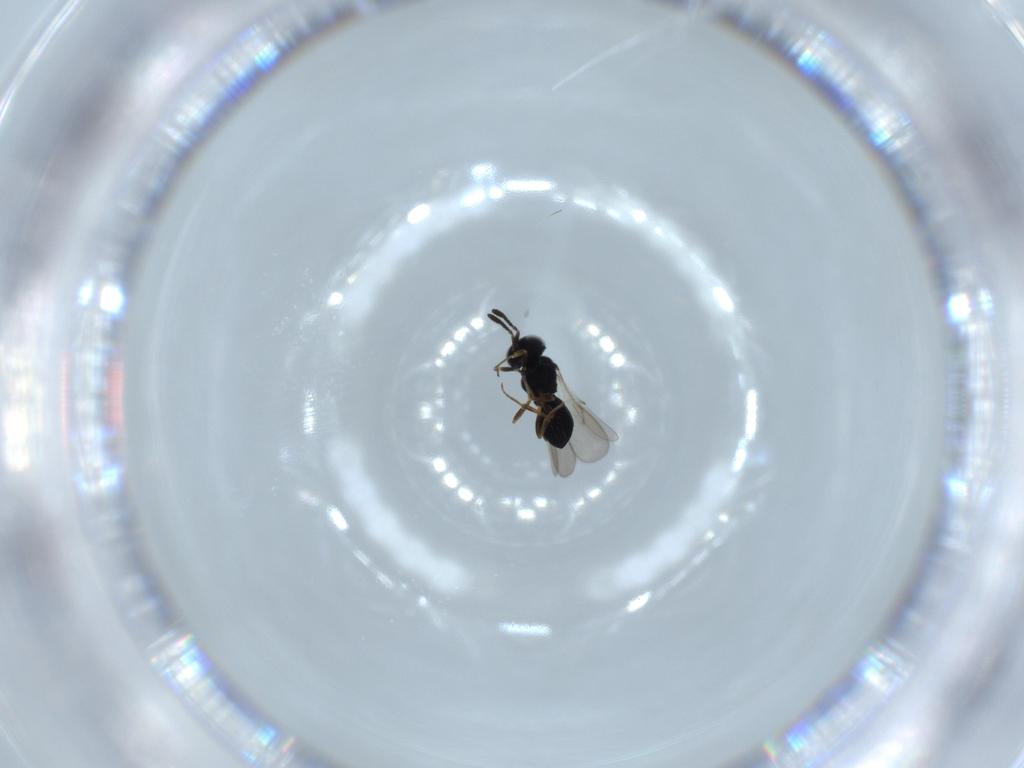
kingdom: Animalia
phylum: Arthropoda
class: Insecta
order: Hymenoptera
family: Scelionidae
